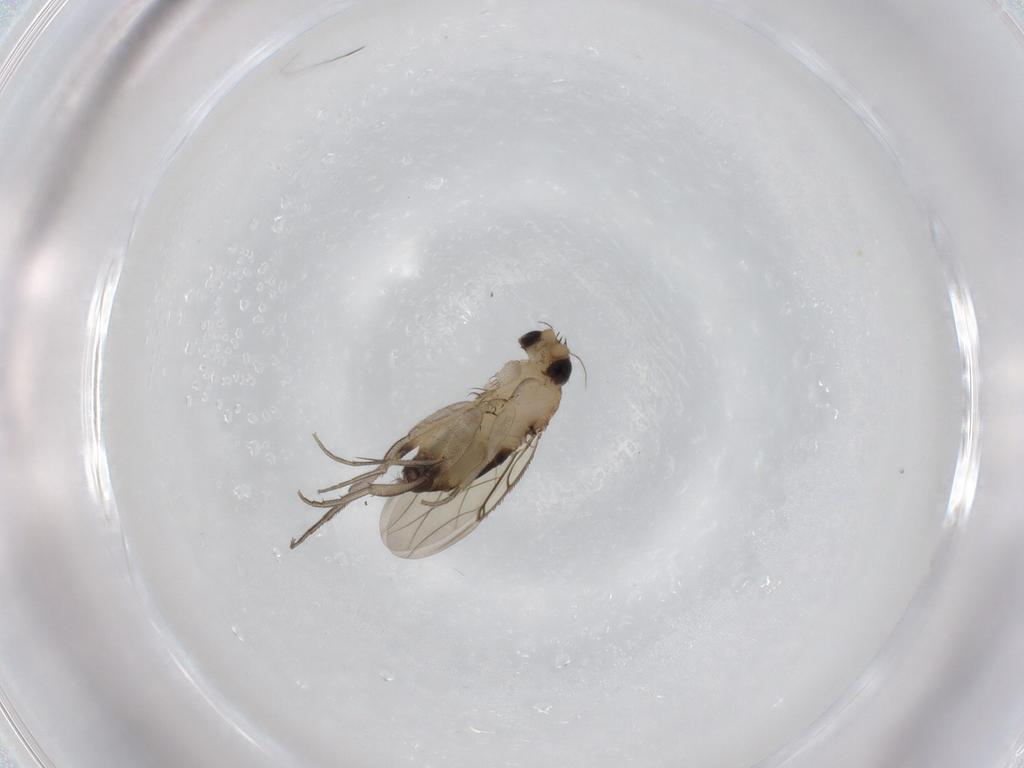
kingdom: Animalia
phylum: Arthropoda
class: Insecta
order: Diptera
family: Phoridae
